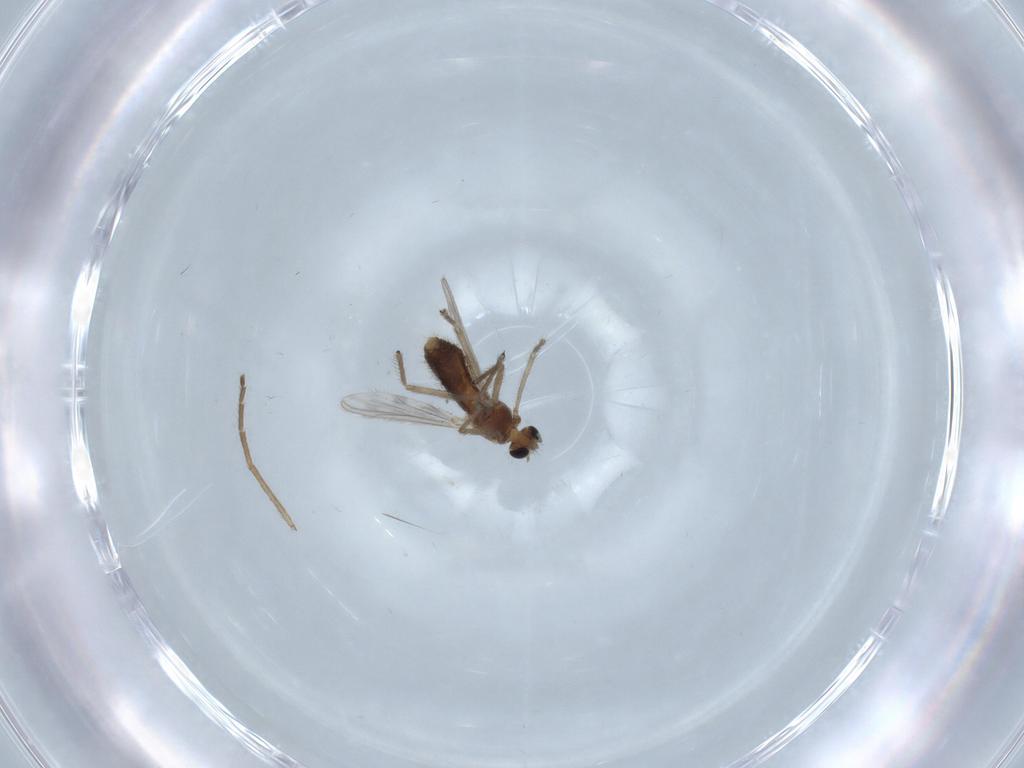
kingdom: Animalia
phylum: Arthropoda
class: Insecta
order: Diptera
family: Chironomidae
